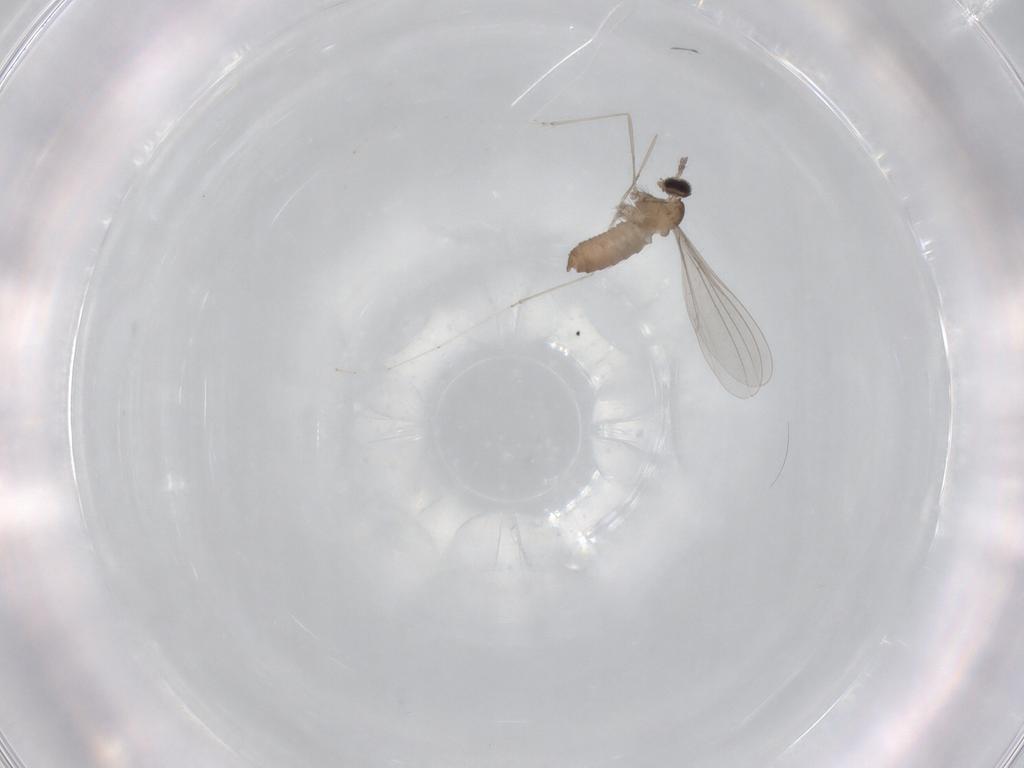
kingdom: Animalia
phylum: Arthropoda
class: Insecta
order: Diptera
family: Cecidomyiidae
